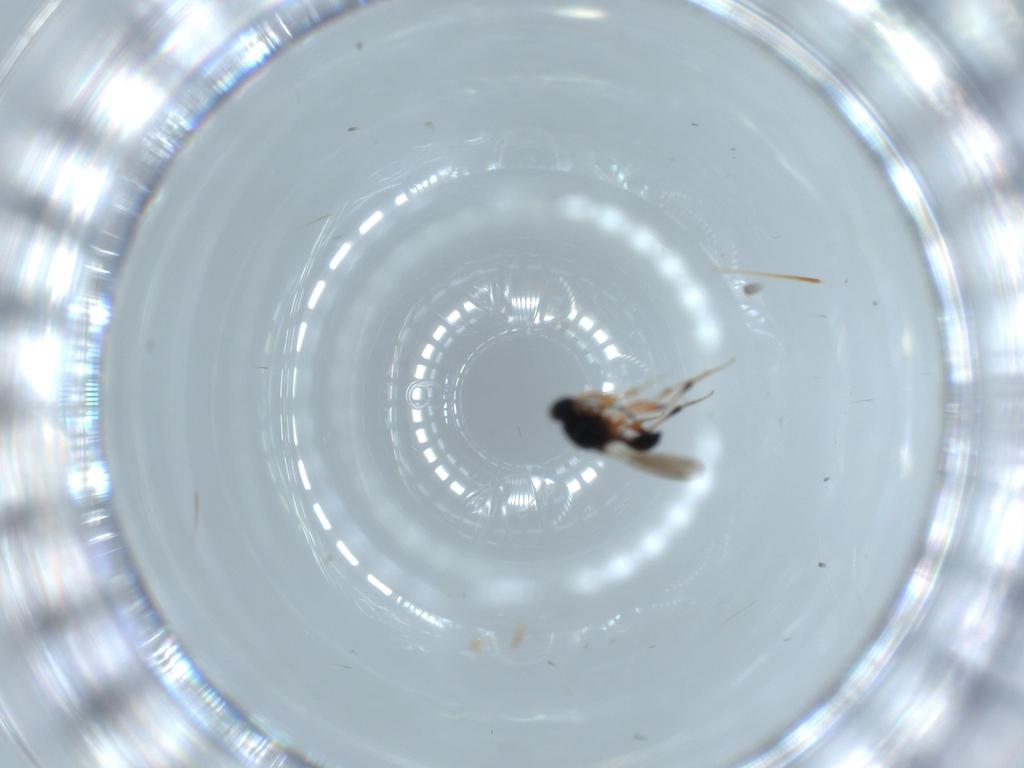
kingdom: Animalia
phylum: Arthropoda
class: Insecta
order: Hymenoptera
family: Platygastridae
